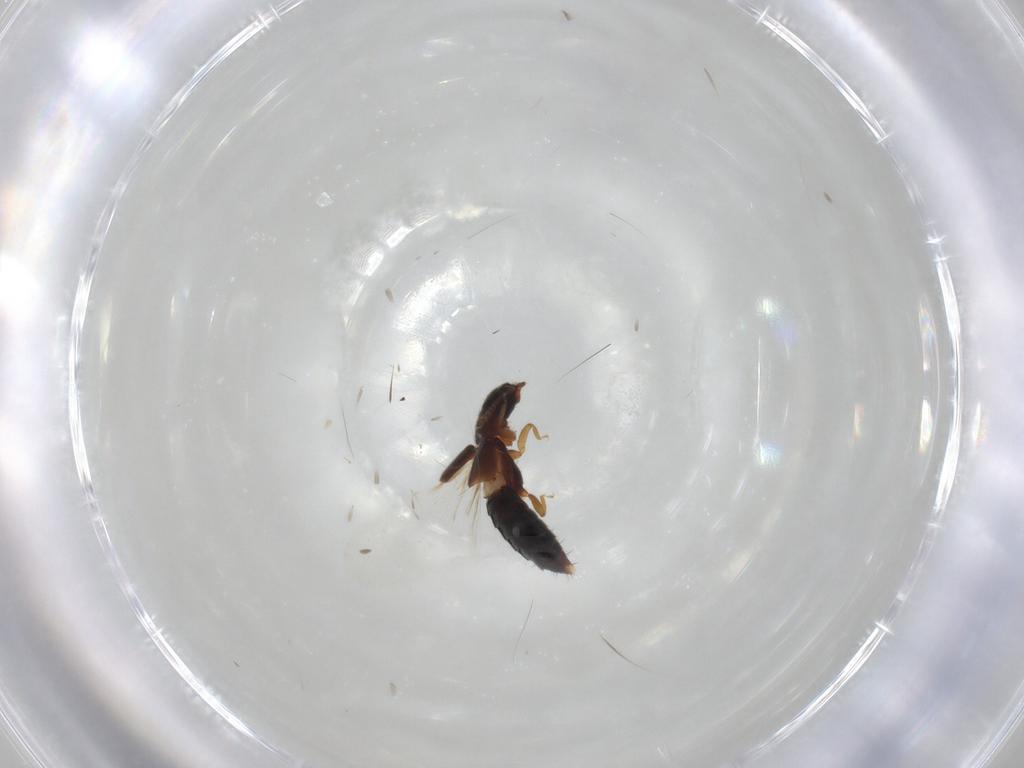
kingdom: Animalia
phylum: Arthropoda
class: Insecta
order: Coleoptera
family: Staphylinidae
